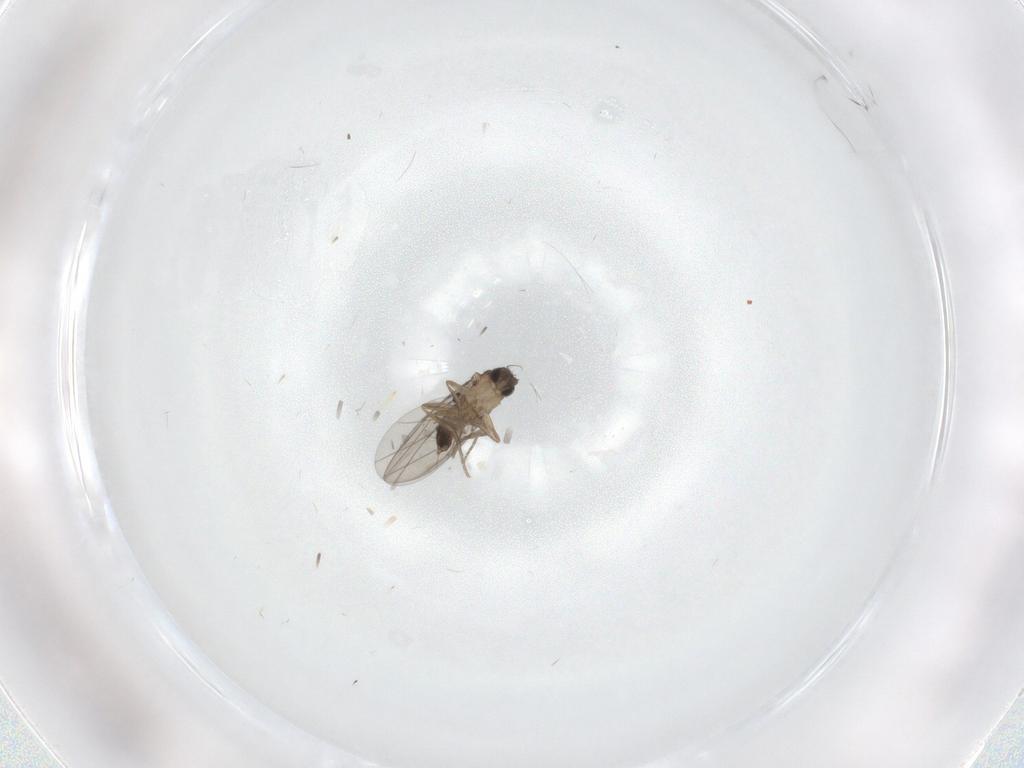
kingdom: Animalia
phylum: Arthropoda
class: Insecta
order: Diptera
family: Phoridae
